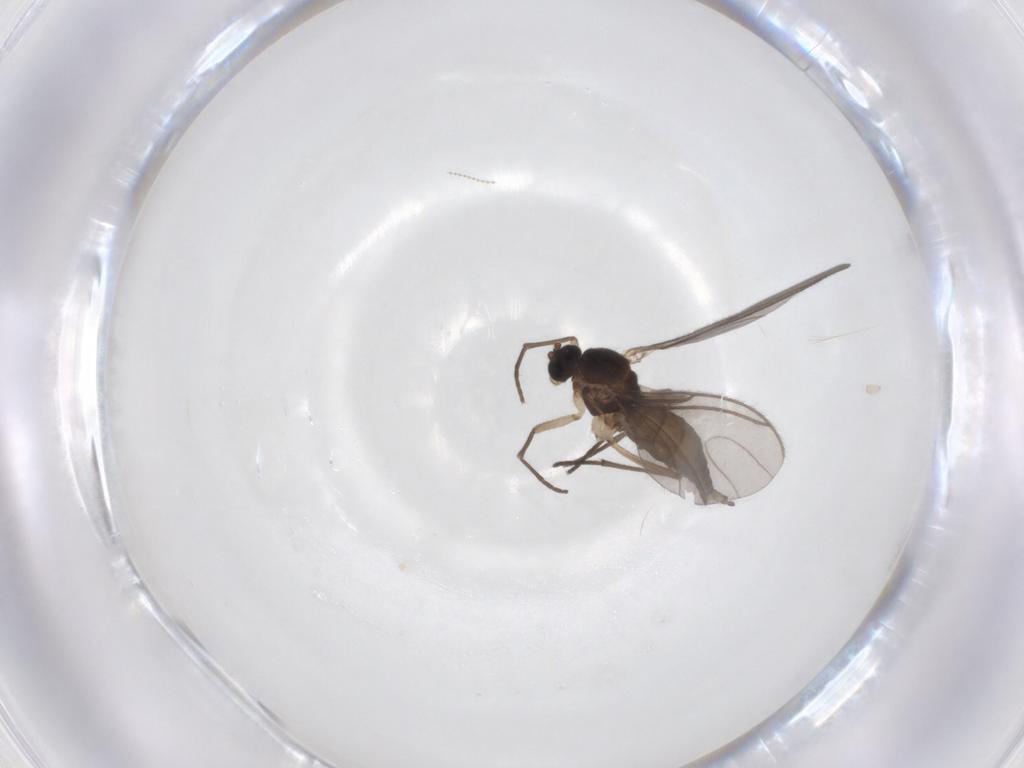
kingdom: Animalia
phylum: Arthropoda
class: Insecta
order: Diptera
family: Sciaridae
